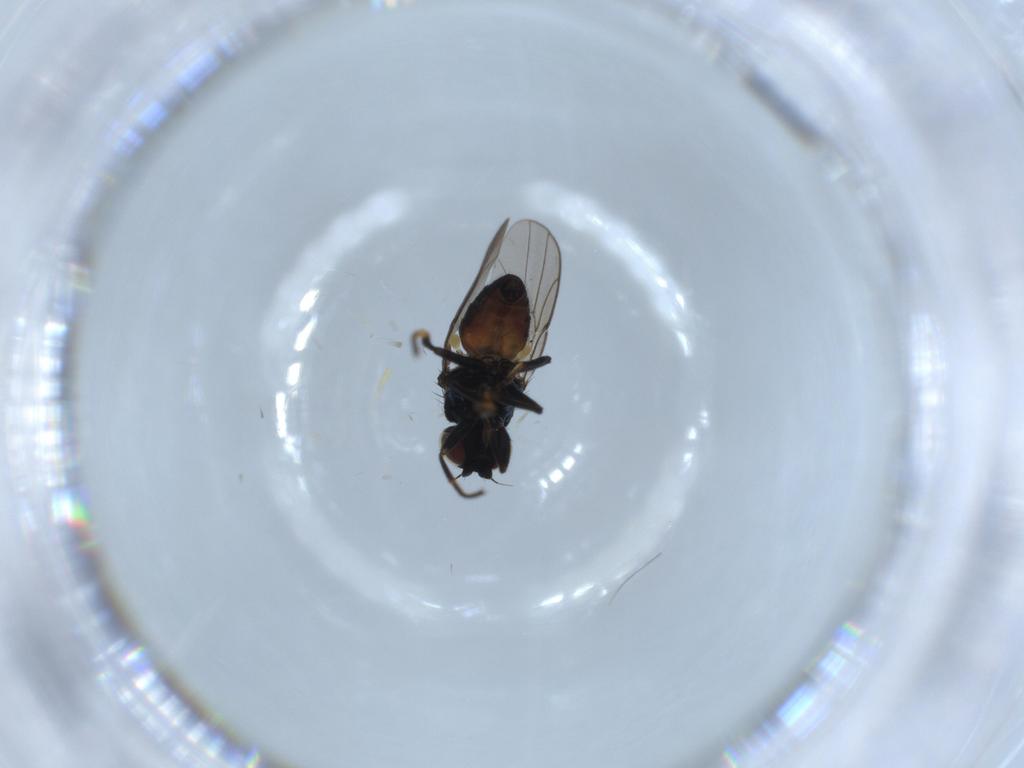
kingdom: Animalia
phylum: Arthropoda
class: Insecta
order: Diptera
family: Chloropidae
